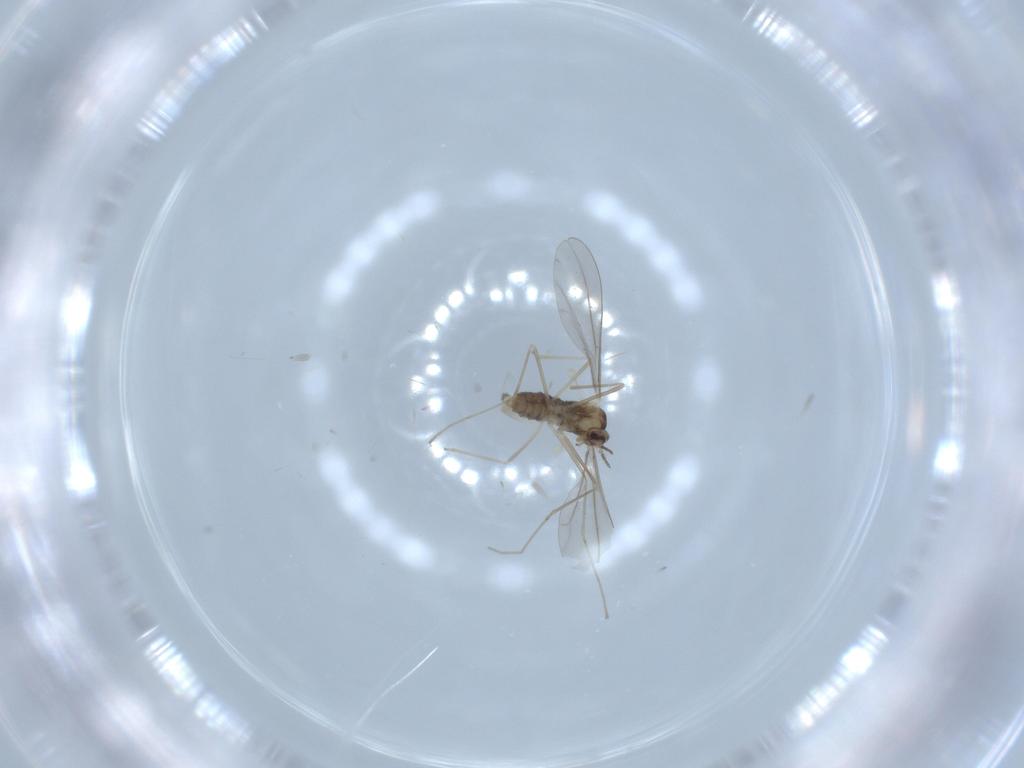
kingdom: Animalia
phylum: Arthropoda
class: Insecta
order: Diptera
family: Cecidomyiidae
